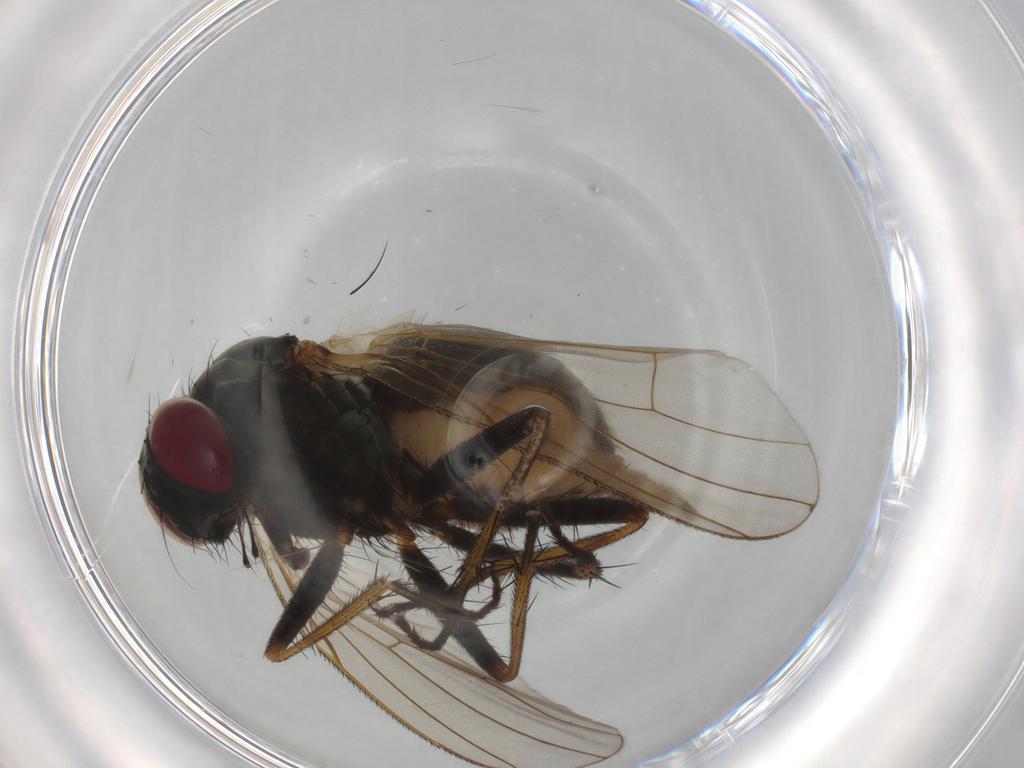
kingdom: Animalia
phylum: Arthropoda
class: Insecta
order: Diptera
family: Muscidae
